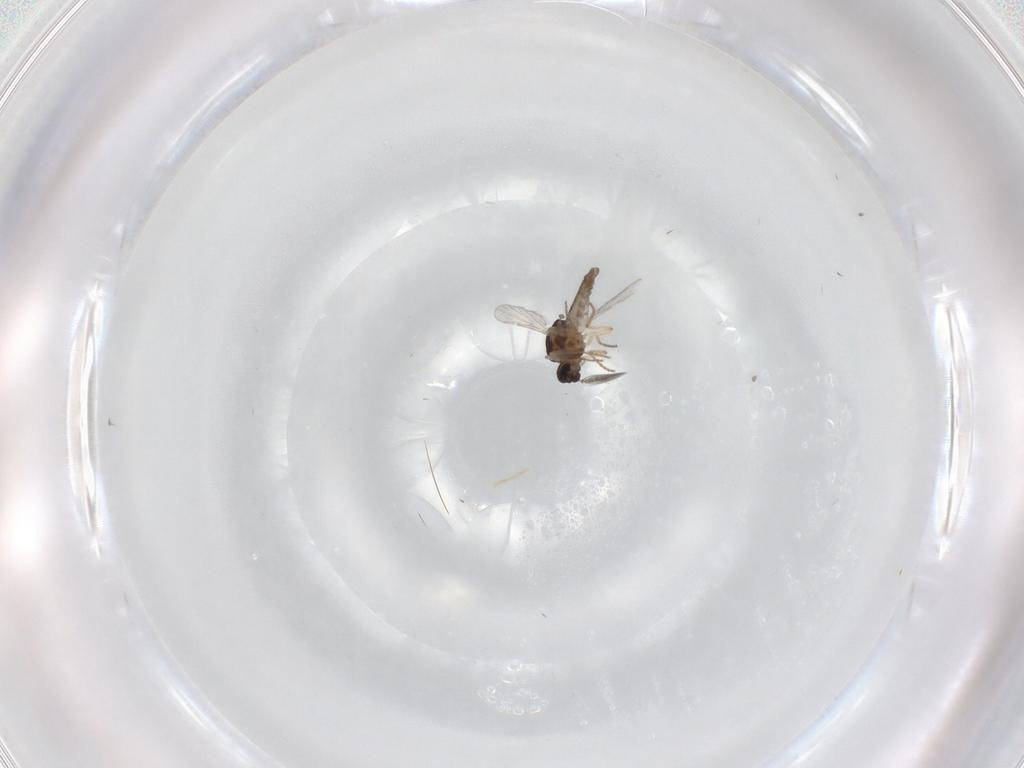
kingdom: Animalia
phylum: Arthropoda
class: Insecta
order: Diptera
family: Ceratopogonidae
